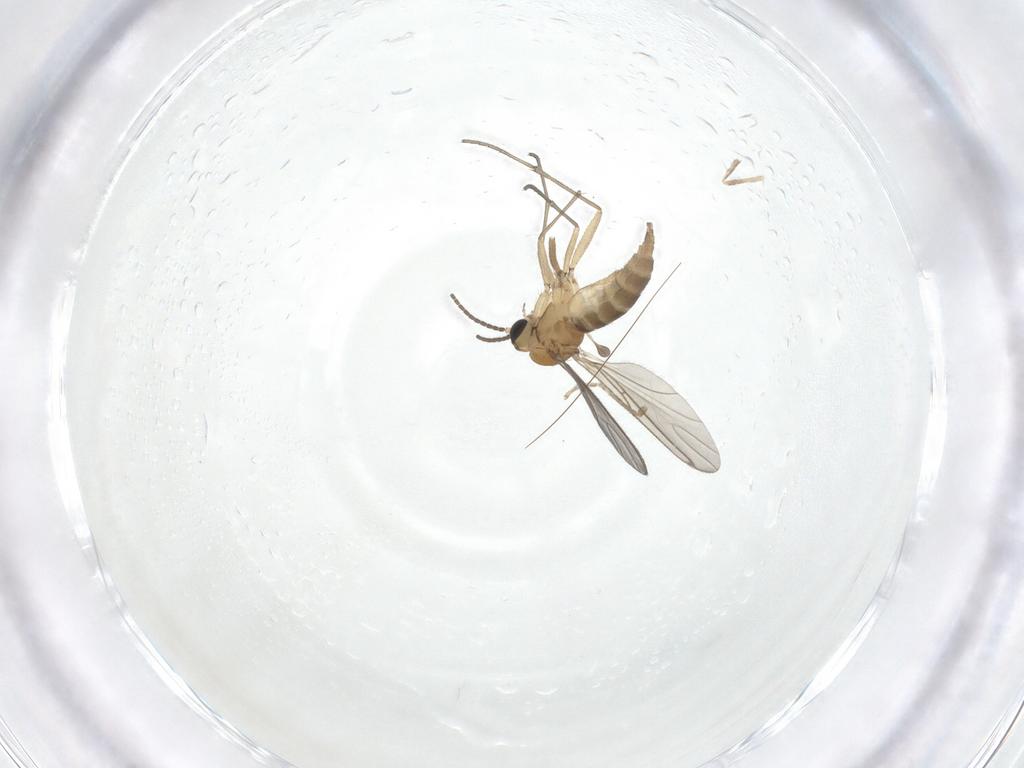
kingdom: Animalia
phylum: Arthropoda
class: Insecta
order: Diptera
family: Sciaridae
